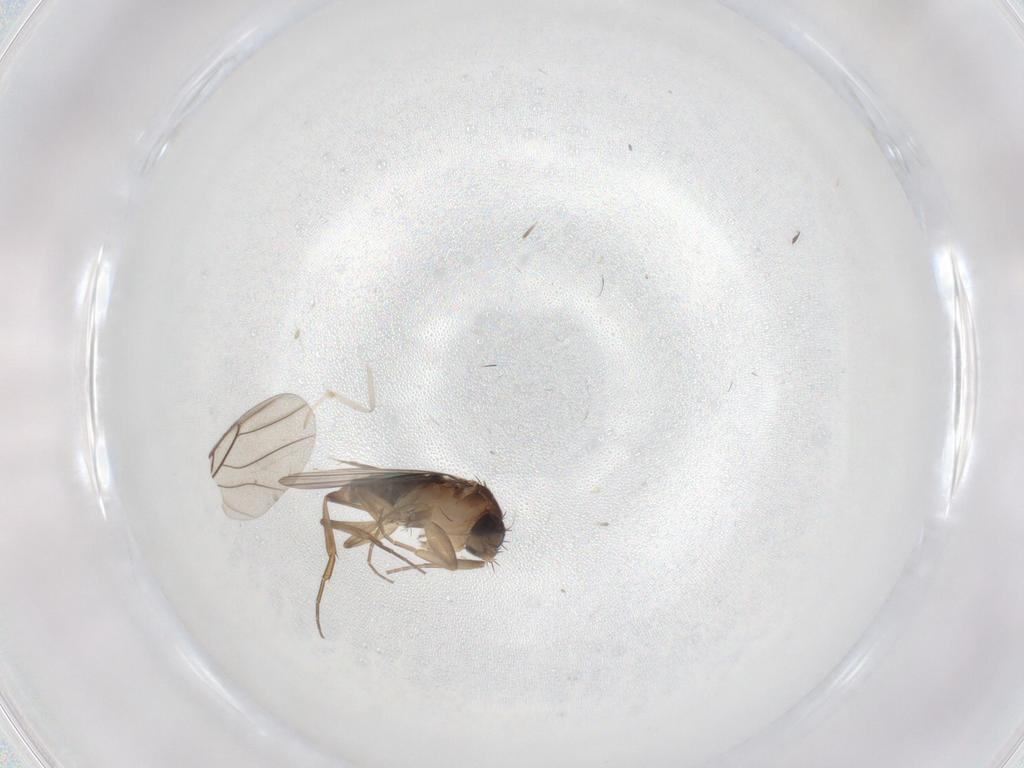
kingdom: Animalia
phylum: Arthropoda
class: Insecta
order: Diptera
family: Phoridae
